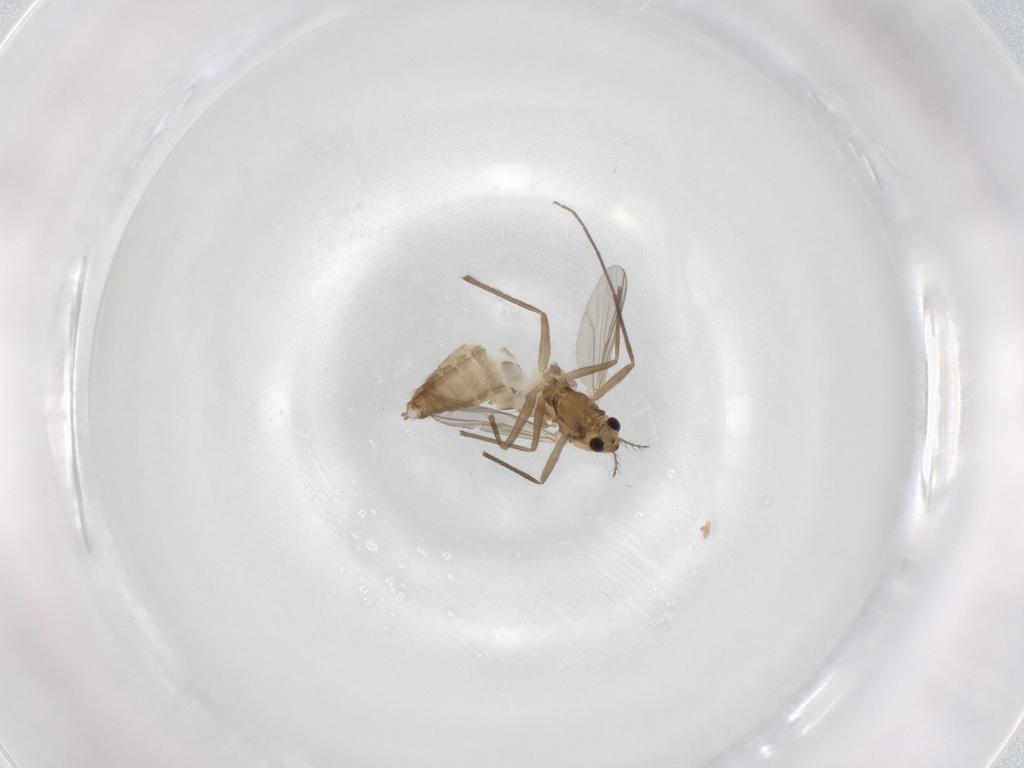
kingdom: Animalia
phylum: Arthropoda
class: Insecta
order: Diptera
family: Chironomidae
